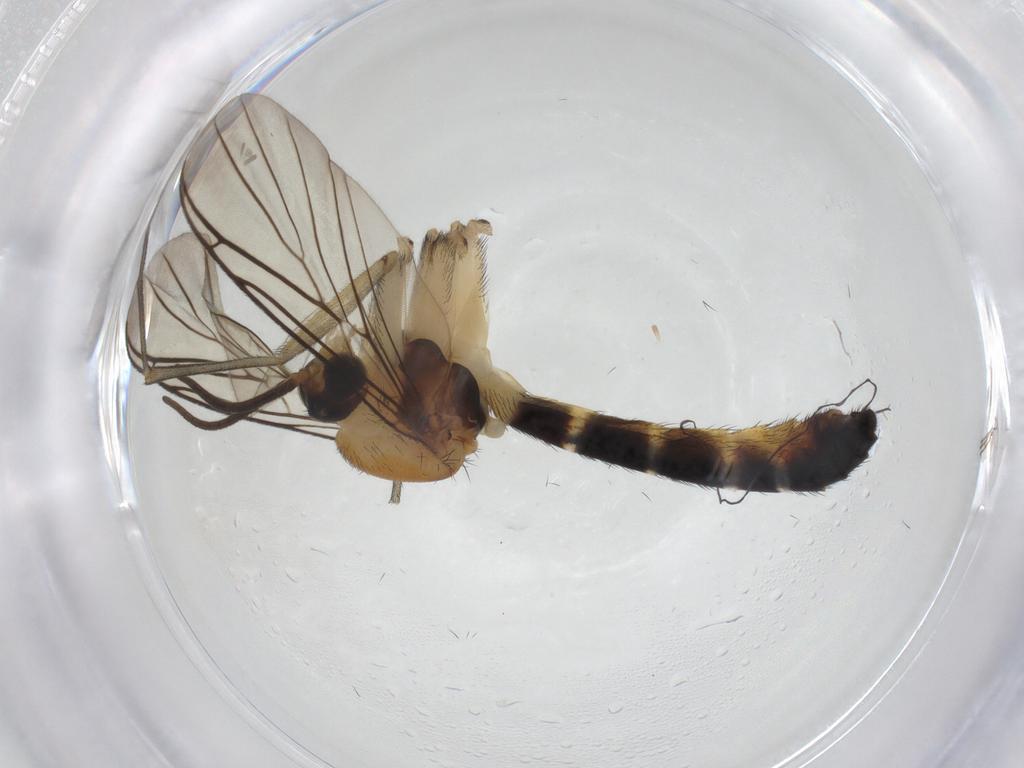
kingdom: Animalia
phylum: Arthropoda
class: Insecta
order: Diptera
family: Keroplatidae
